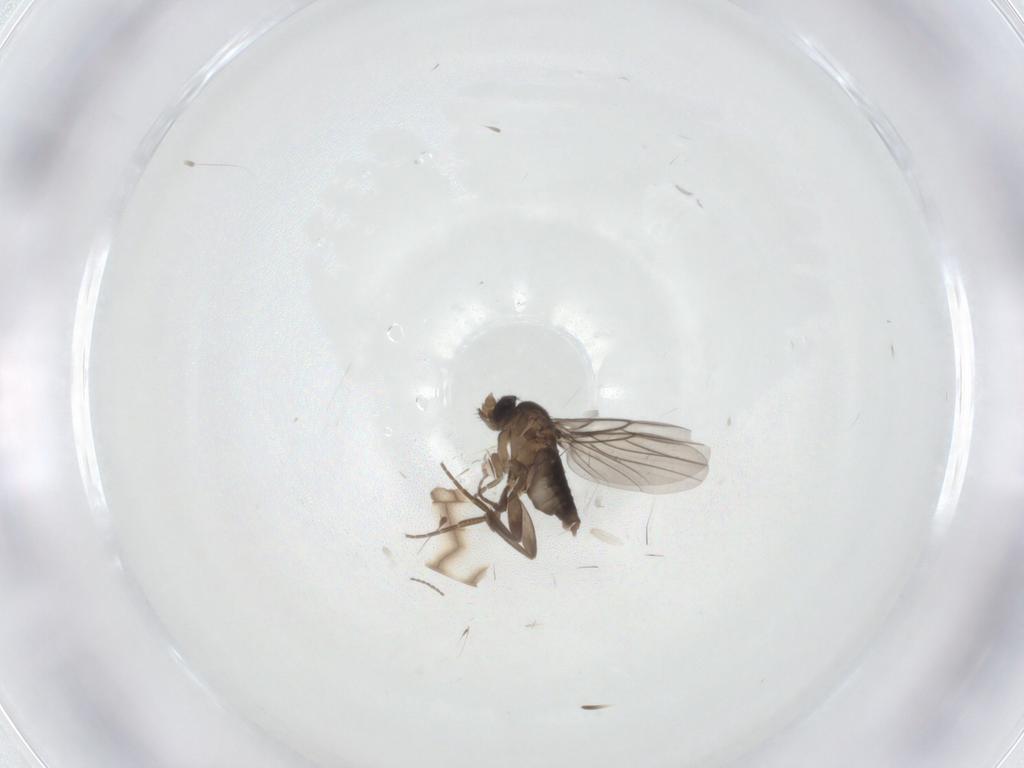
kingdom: Animalia
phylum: Arthropoda
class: Insecta
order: Diptera
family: Phoridae
